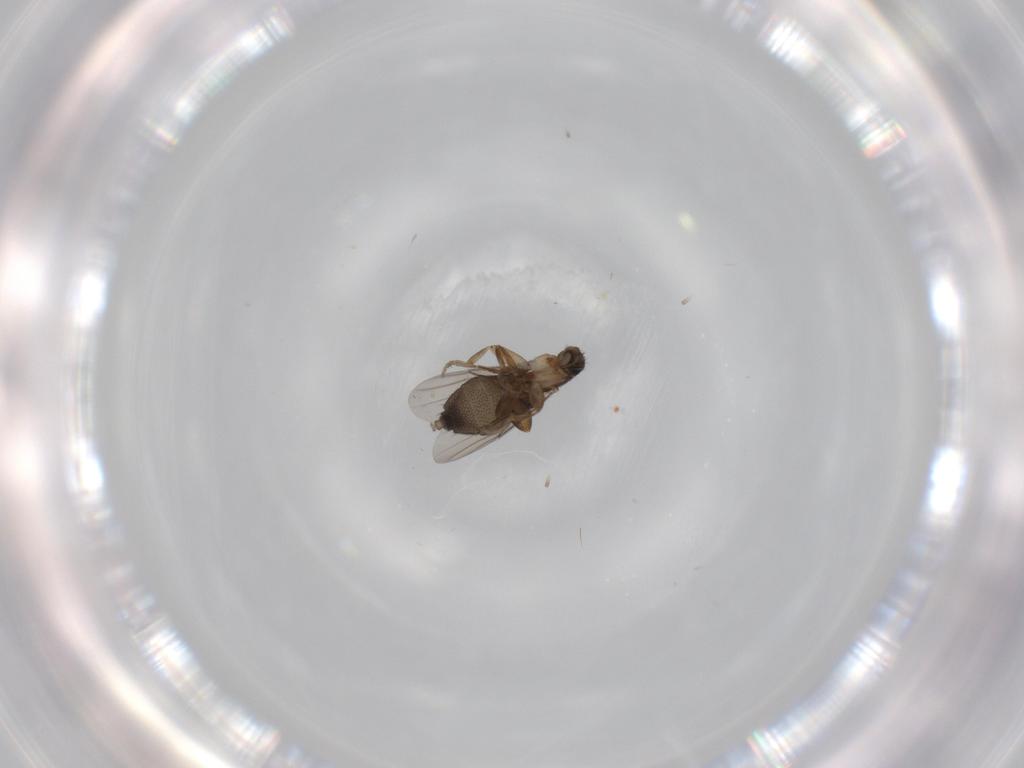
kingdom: Animalia
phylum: Arthropoda
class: Insecta
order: Diptera
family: Phoridae
